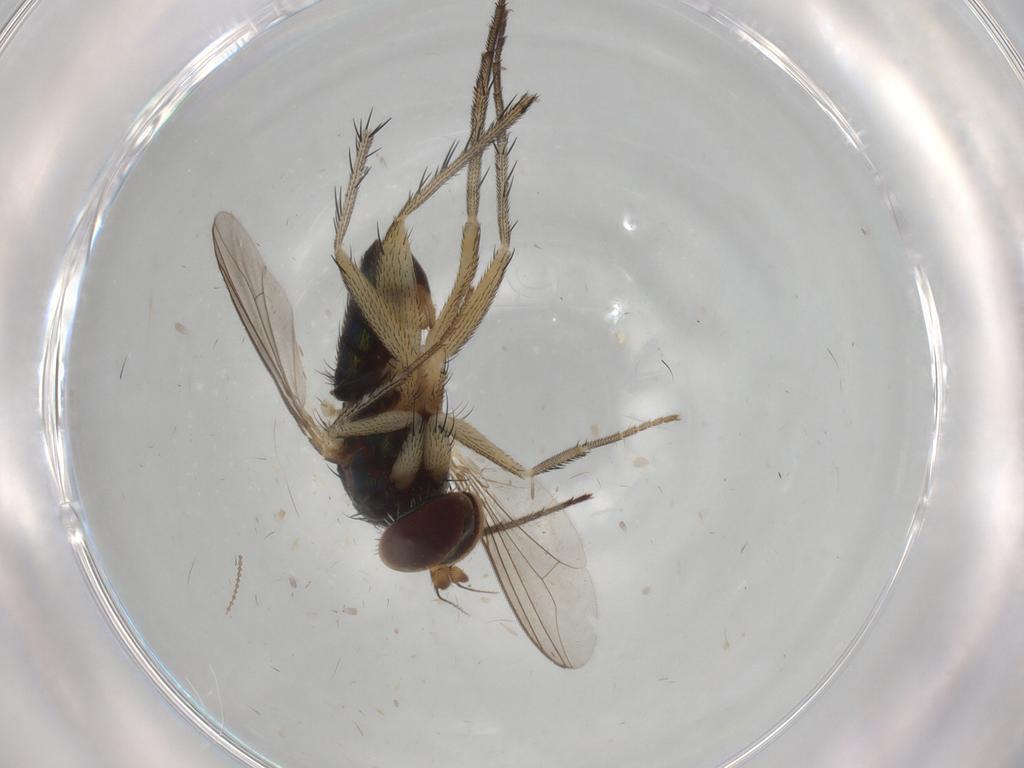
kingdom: Animalia
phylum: Arthropoda
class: Insecta
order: Diptera
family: Dolichopodidae
